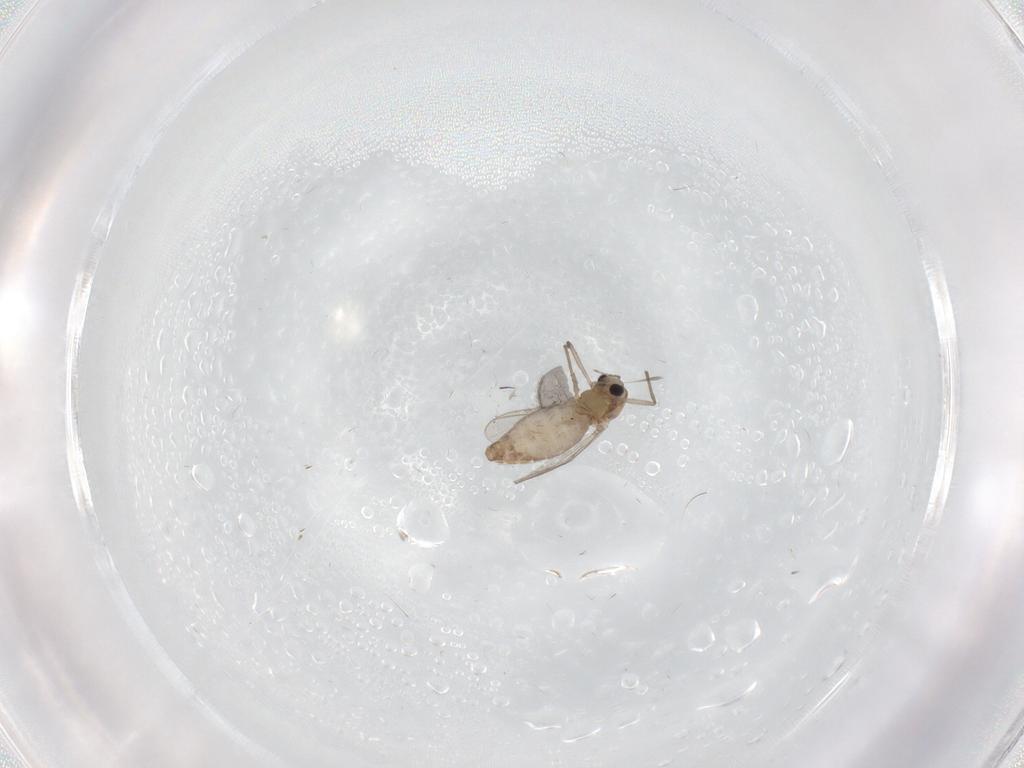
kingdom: Animalia
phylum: Arthropoda
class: Insecta
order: Diptera
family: Chironomidae
